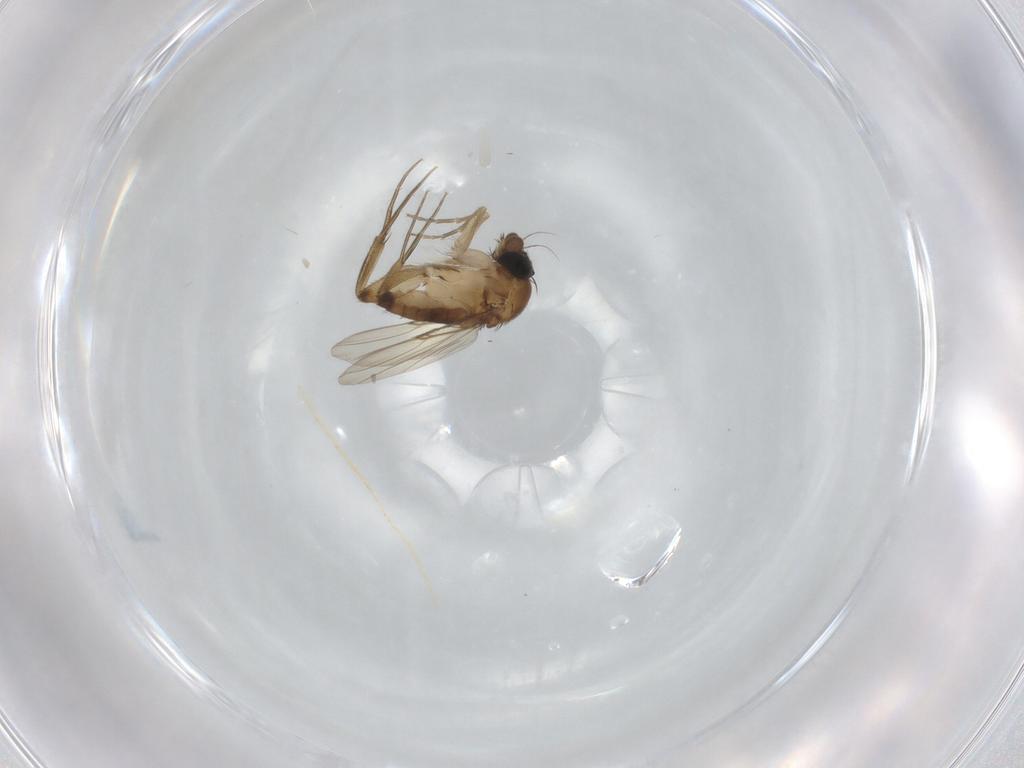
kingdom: Animalia
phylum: Arthropoda
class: Insecta
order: Diptera
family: Phoridae
